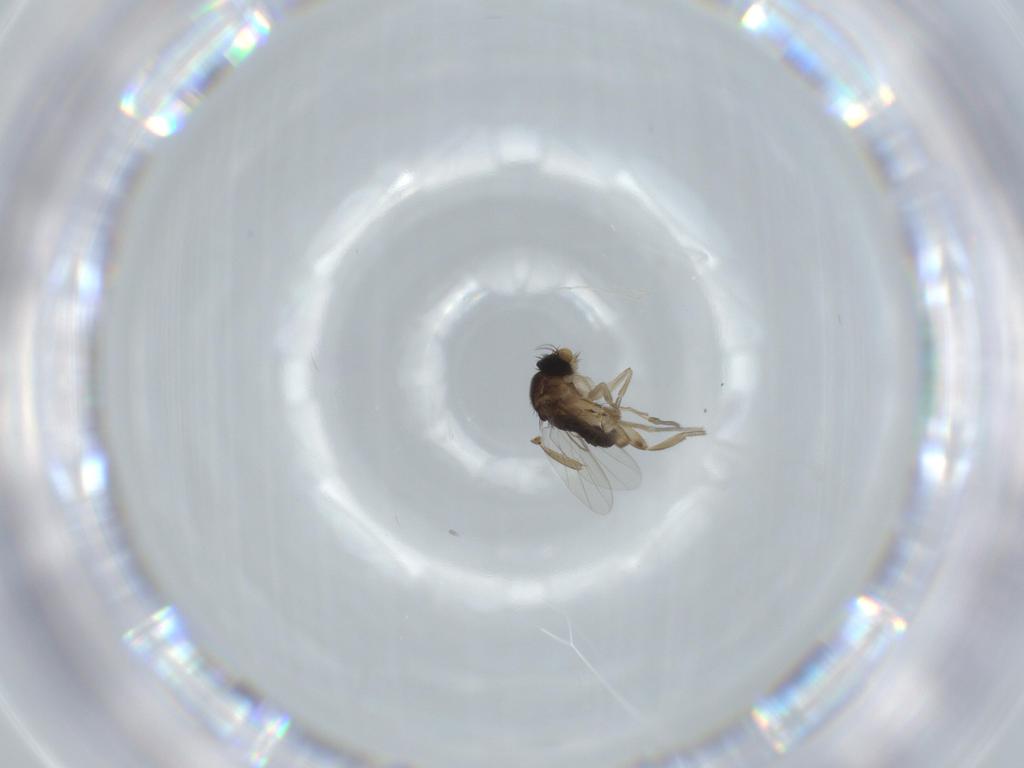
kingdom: Animalia
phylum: Arthropoda
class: Insecta
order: Diptera
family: Phoridae
